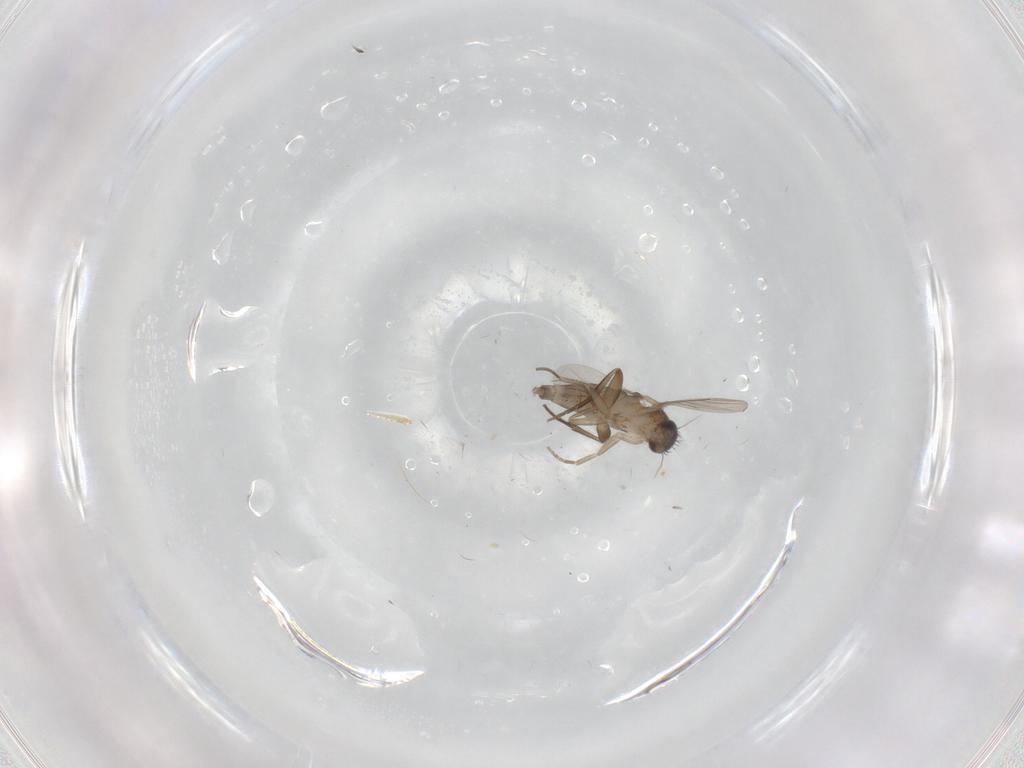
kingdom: Animalia
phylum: Arthropoda
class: Insecta
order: Diptera
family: Phoridae
